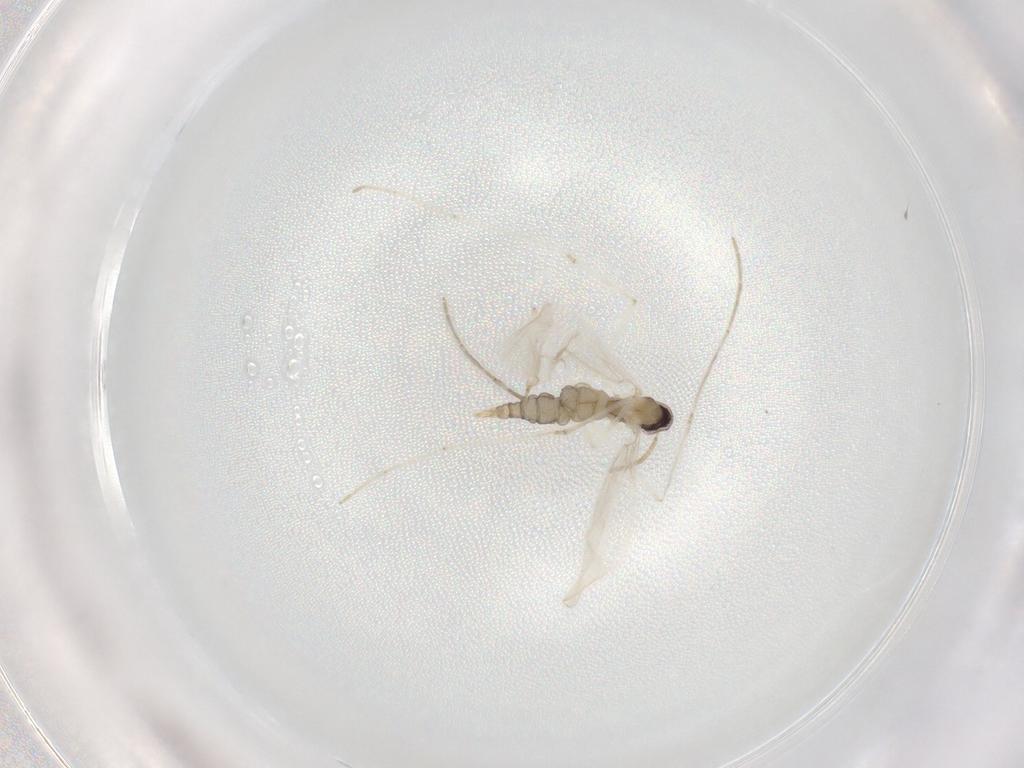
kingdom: Animalia
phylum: Arthropoda
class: Insecta
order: Diptera
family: Cecidomyiidae
